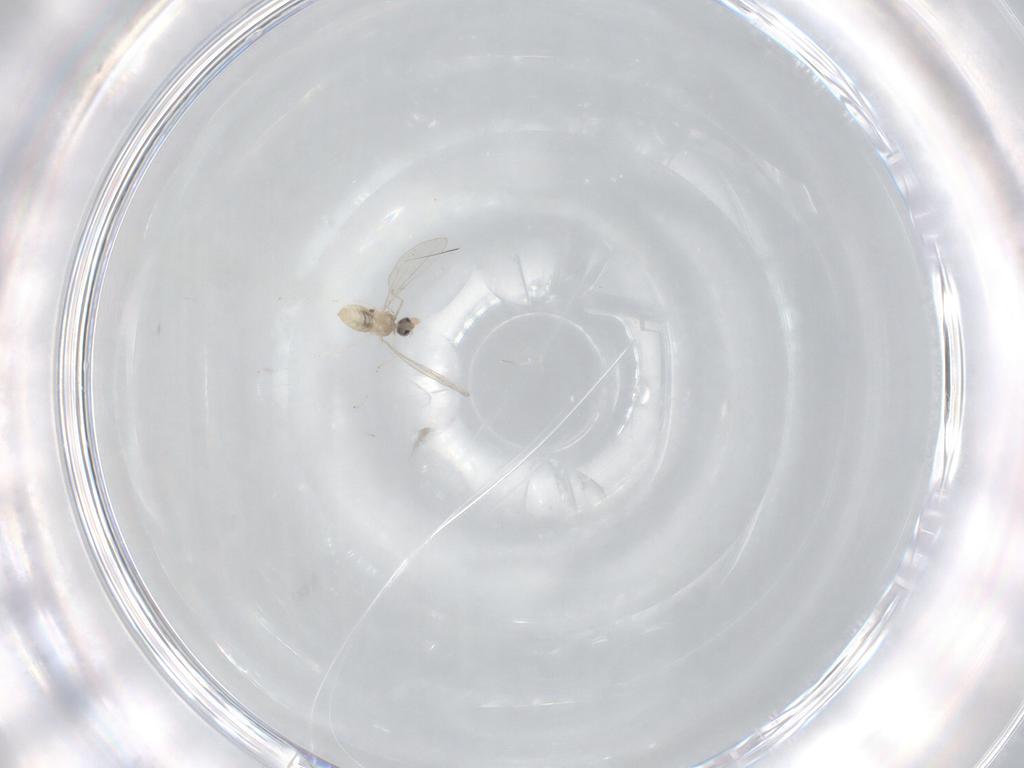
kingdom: Animalia
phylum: Arthropoda
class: Insecta
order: Diptera
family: Cecidomyiidae
